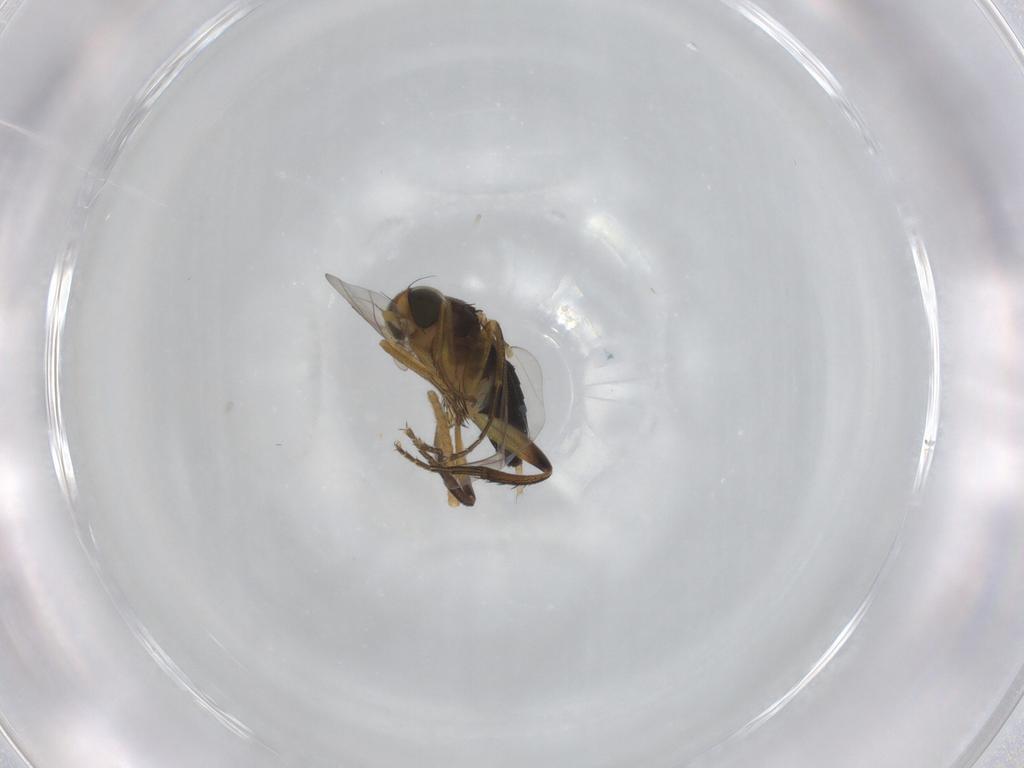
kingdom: Animalia
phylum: Arthropoda
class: Insecta
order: Diptera
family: Phoridae
